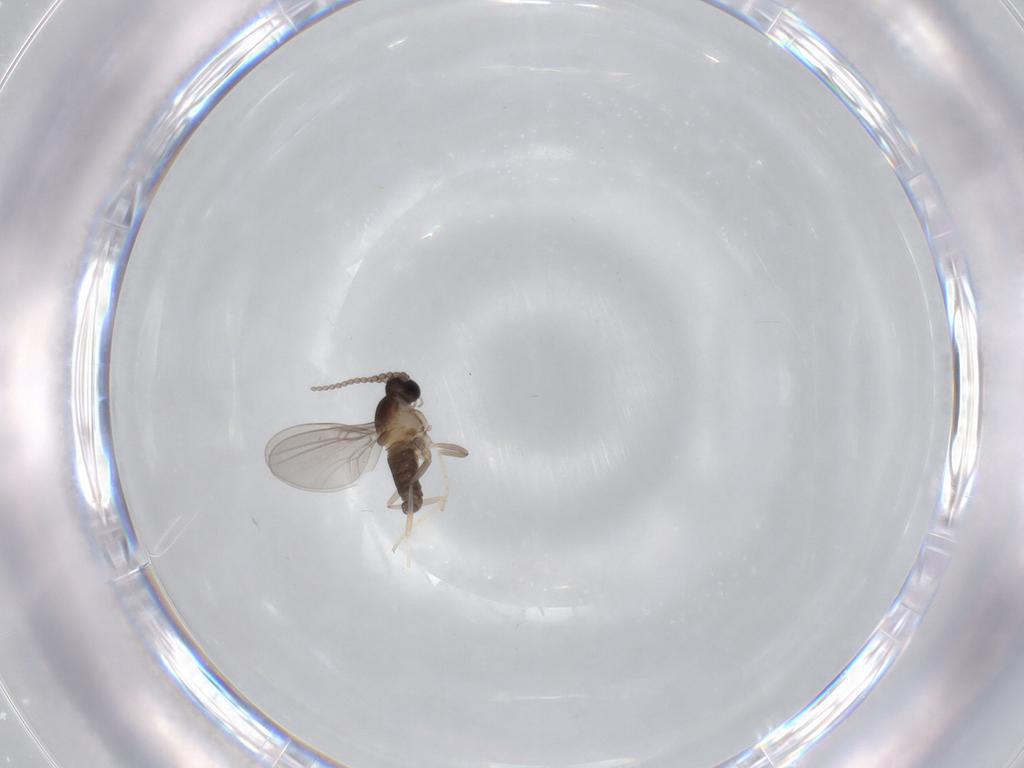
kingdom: Animalia
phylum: Arthropoda
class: Insecta
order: Diptera
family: Cecidomyiidae
